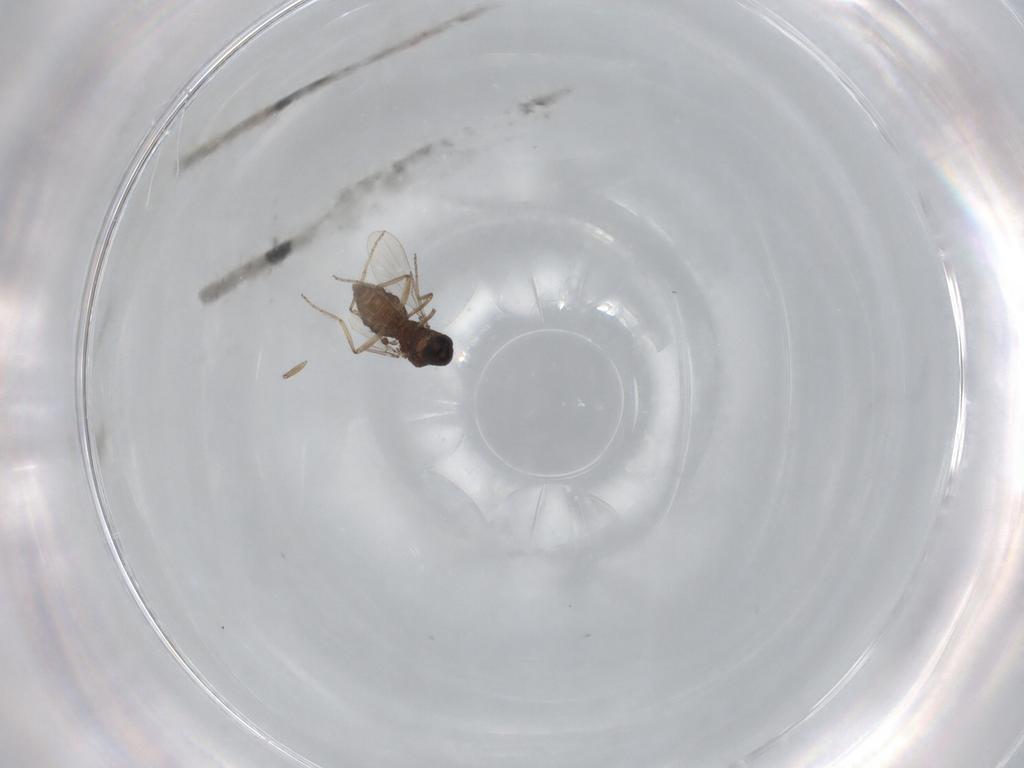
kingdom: Animalia
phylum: Arthropoda
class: Insecta
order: Diptera
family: Ceratopogonidae
